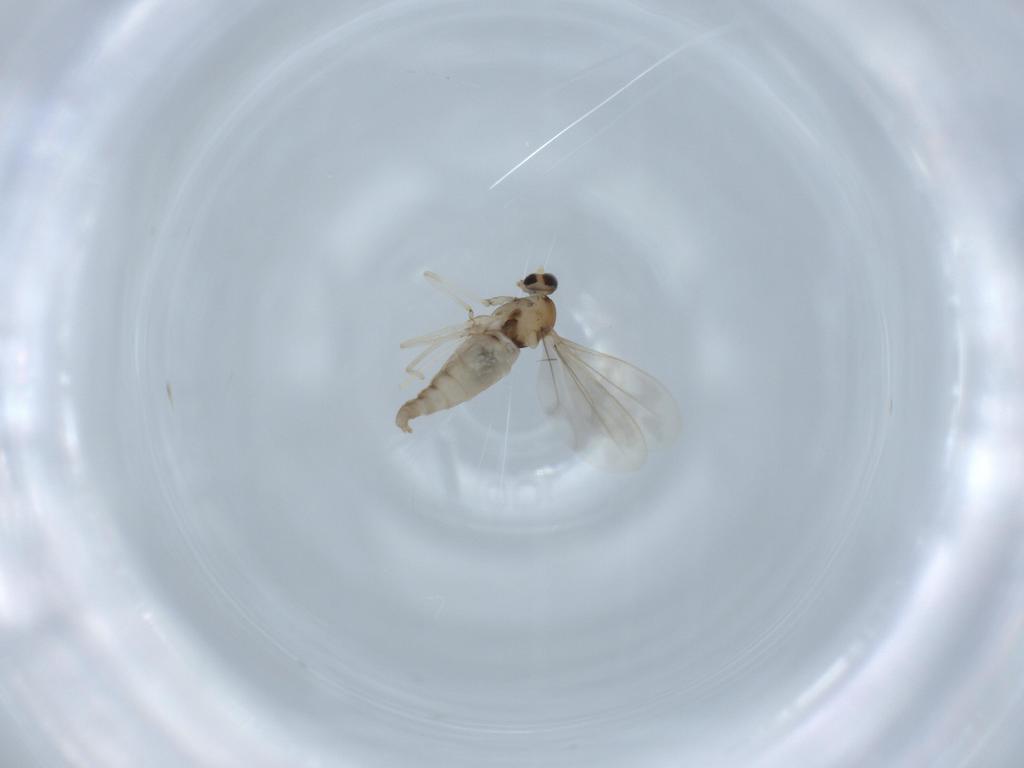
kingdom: Animalia
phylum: Arthropoda
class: Insecta
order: Diptera
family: Cecidomyiidae
